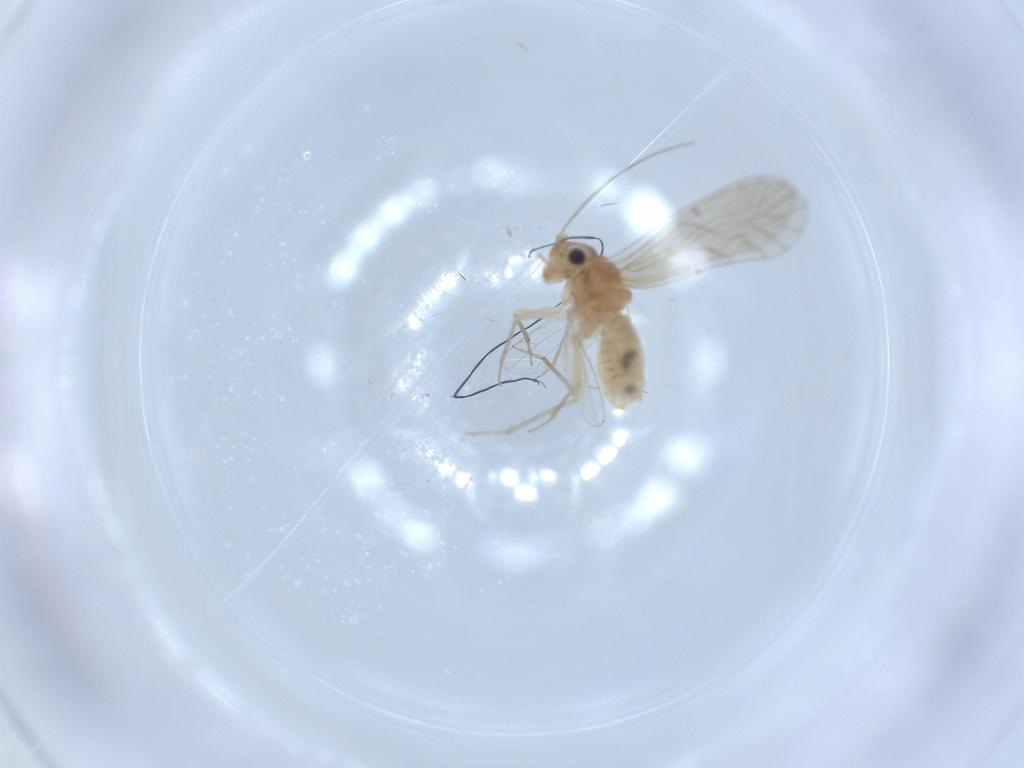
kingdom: Animalia
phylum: Arthropoda
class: Insecta
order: Psocodea
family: Lachesillidae
